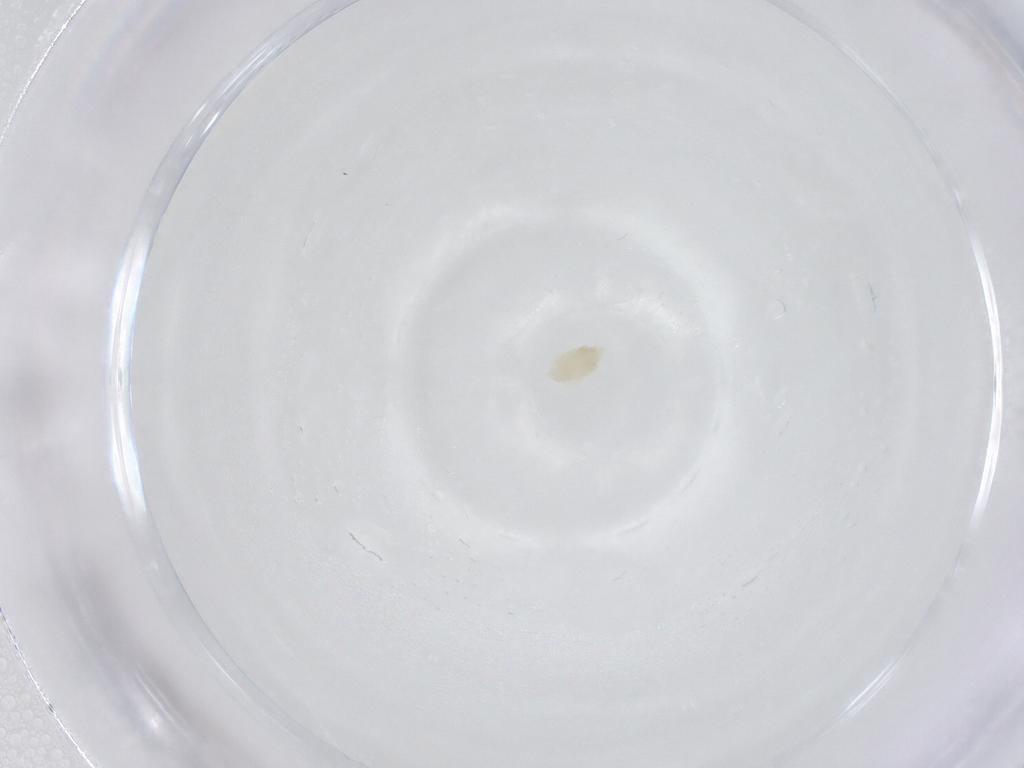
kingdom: Animalia
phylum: Arthropoda
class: Arachnida
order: Trombidiformes
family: Eupodidae
